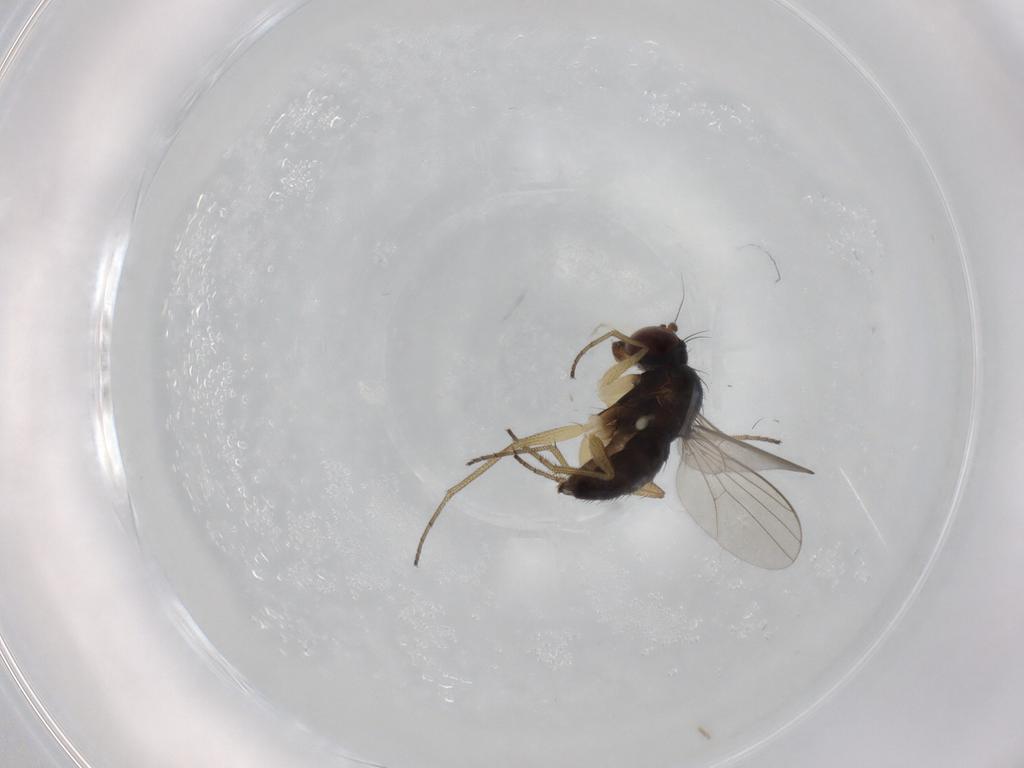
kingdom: Animalia
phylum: Arthropoda
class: Insecta
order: Diptera
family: Dolichopodidae
